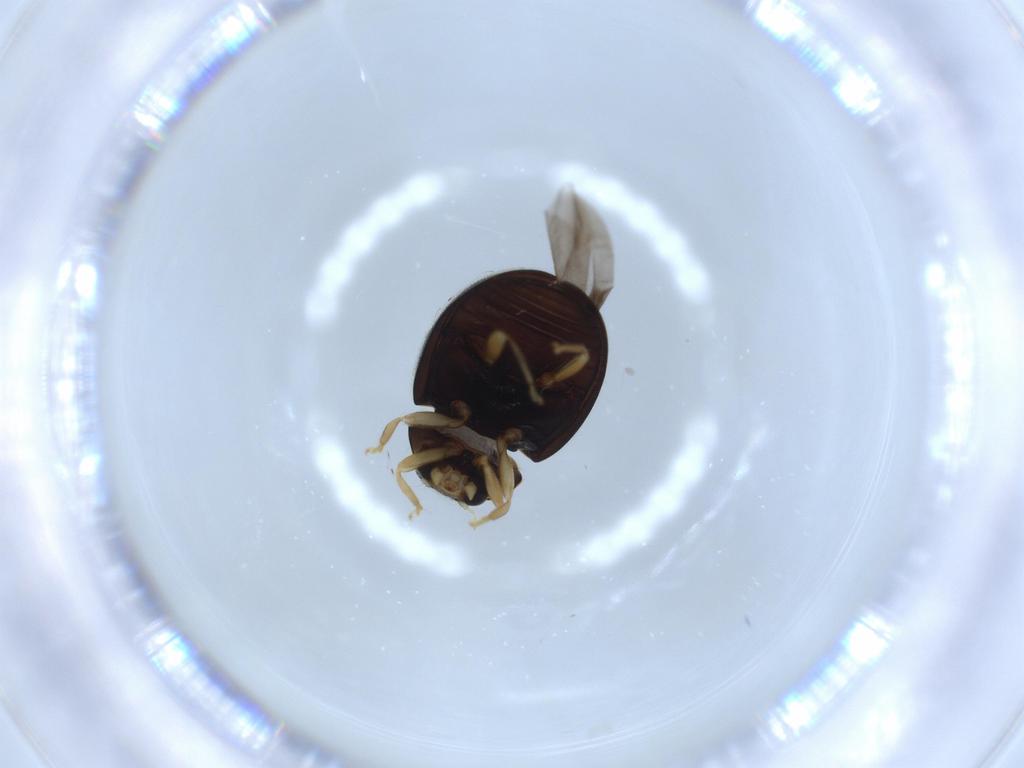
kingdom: Animalia
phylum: Arthropoda
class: Insecta
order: Coleoptera
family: Coccinellidae
